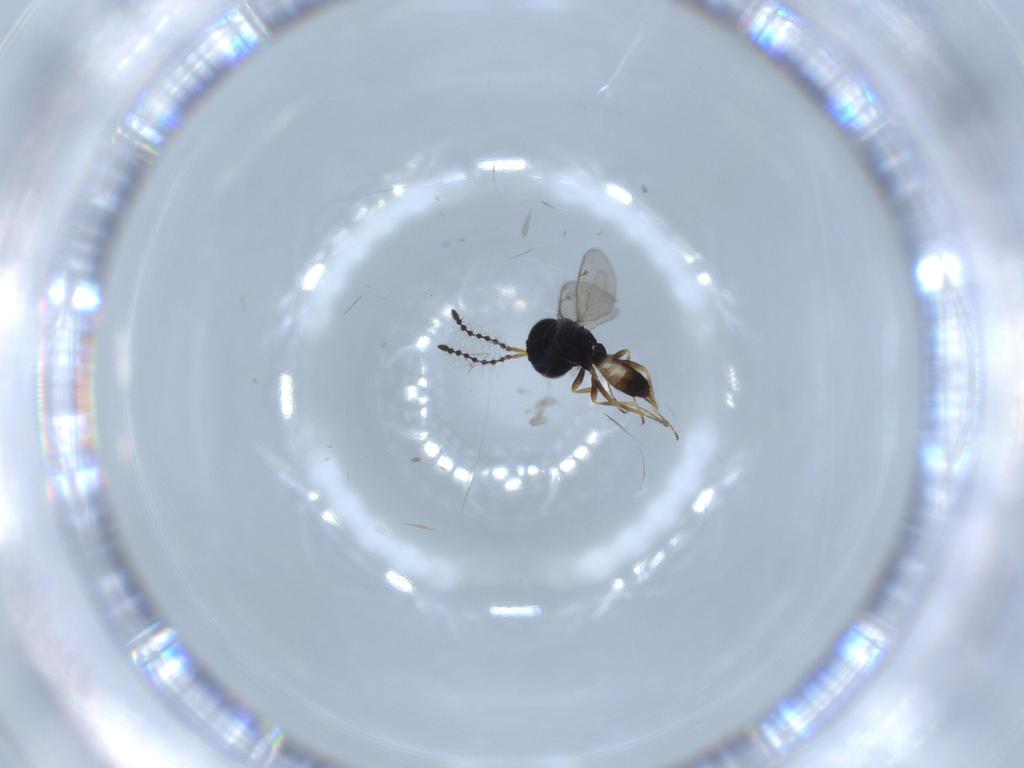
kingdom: Animalia
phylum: Arthropoda
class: Insecta
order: Hymenoptera
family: Pteromalidae
